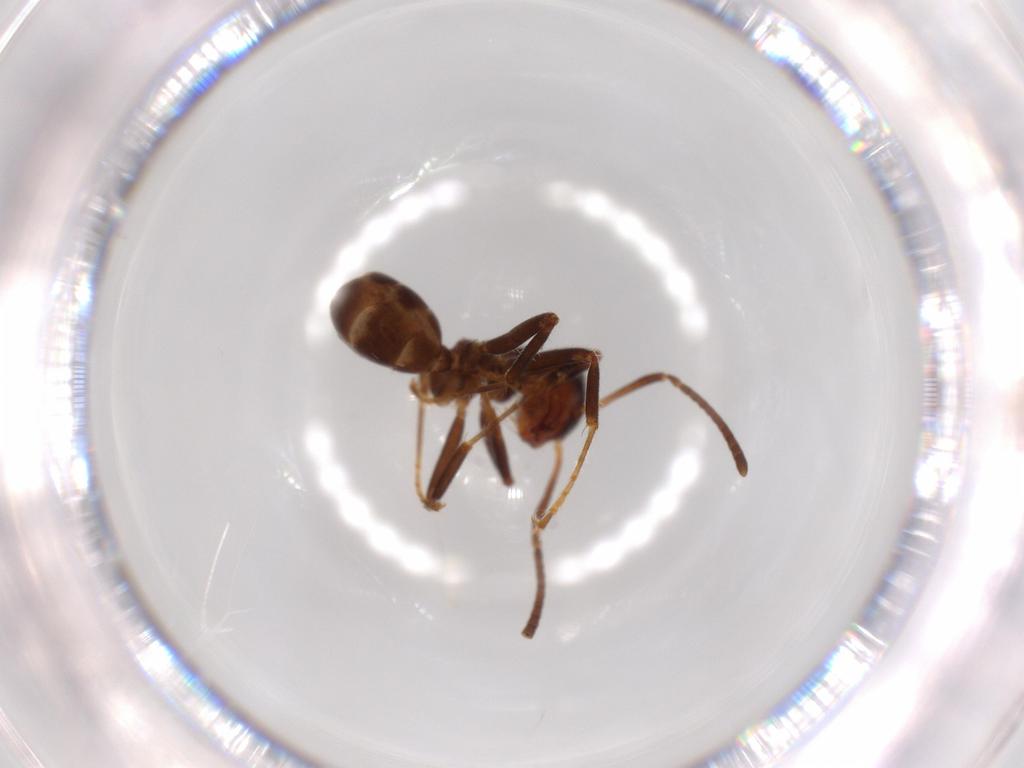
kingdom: Animalia
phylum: Arthropoda
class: Insecta
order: Hymenoptera
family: Formicidae
